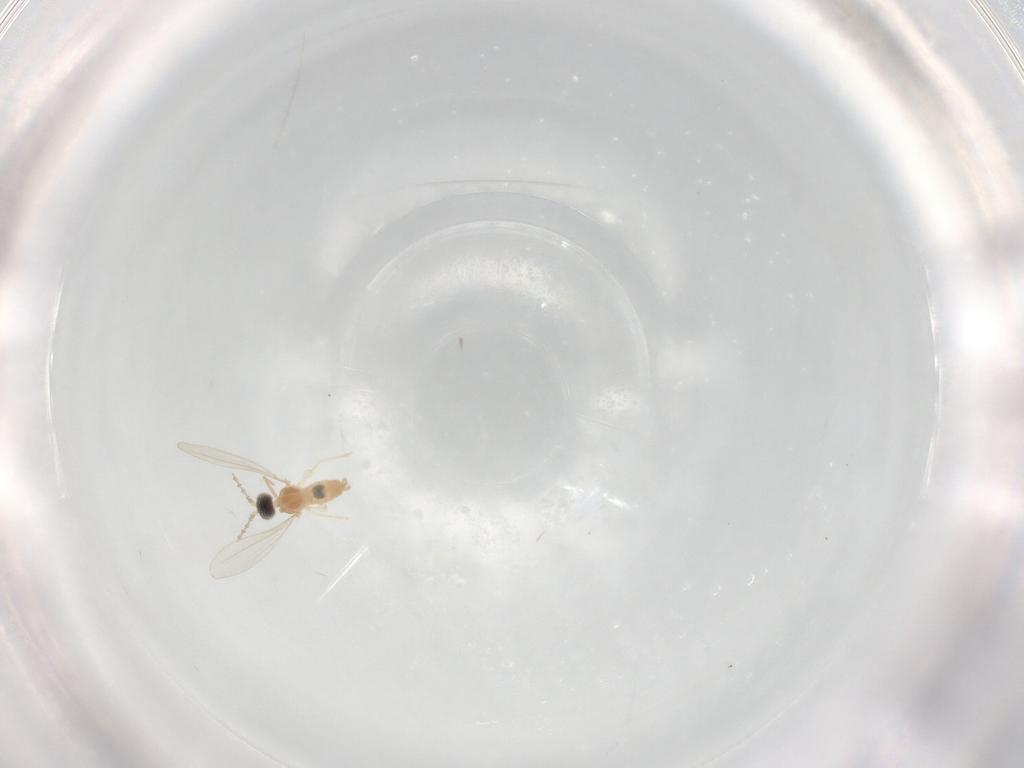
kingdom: Animalia
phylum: Arthropoda
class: Insecta
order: Diptera
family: Cecidomyiidae
